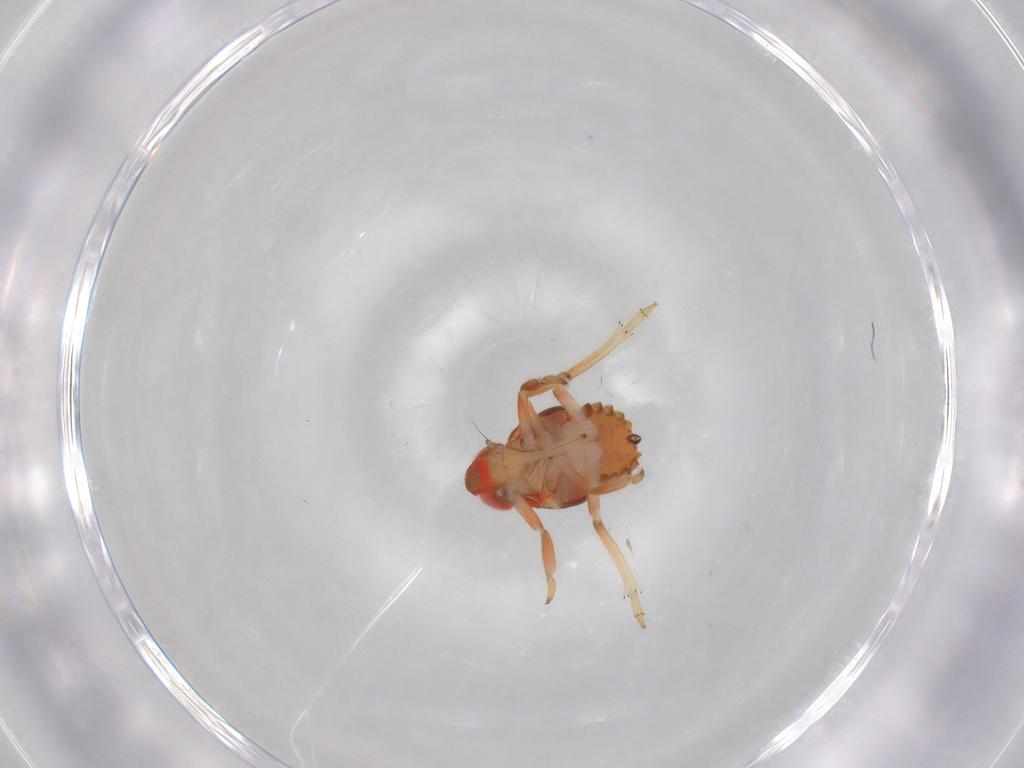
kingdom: Animalia
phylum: Arthropoda
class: Insecta
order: Hemiptera
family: Issidae
